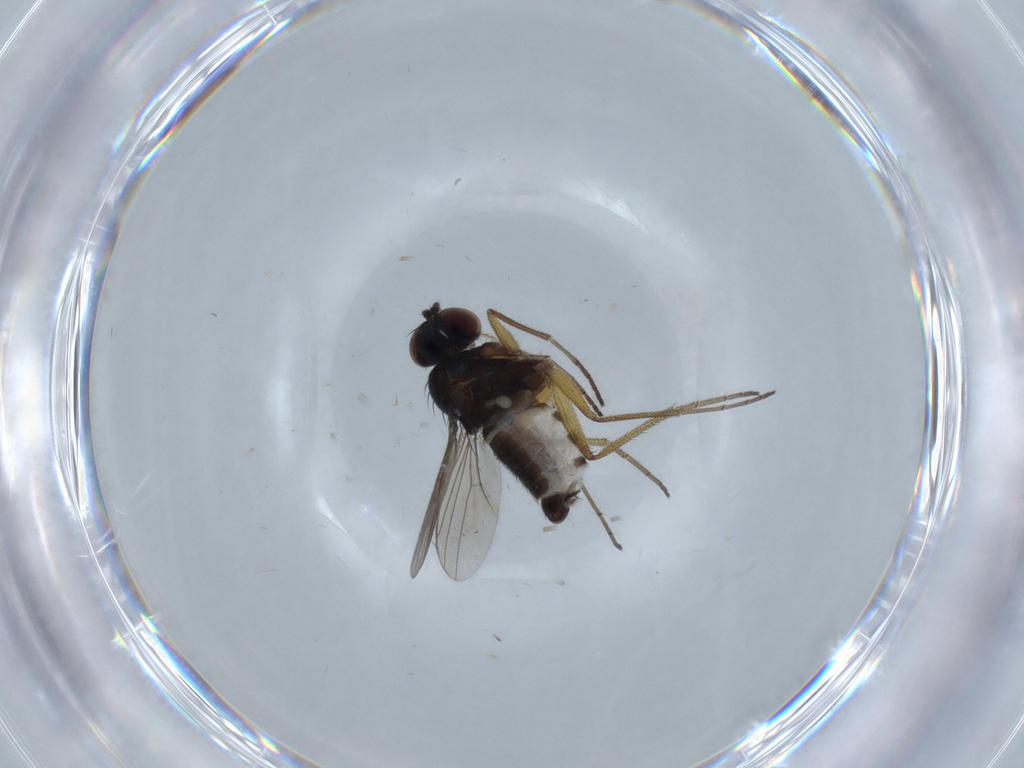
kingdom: Animalia
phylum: Arthropoda
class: Insecta
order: Diptera
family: Dolichopodidae
